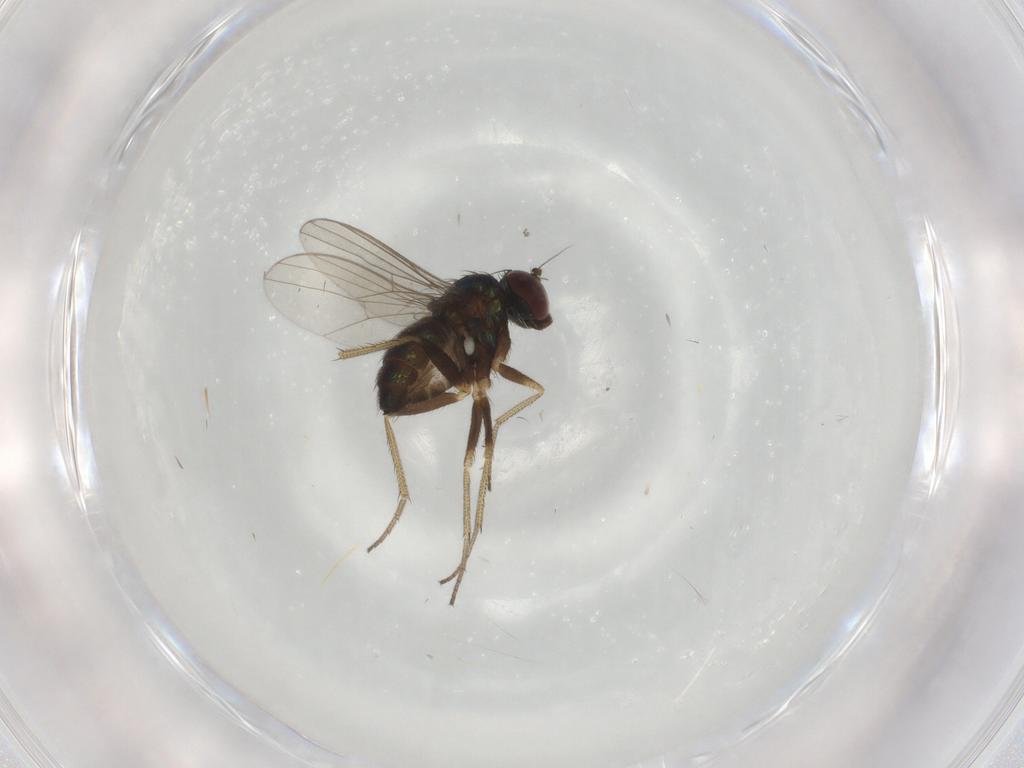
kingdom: Animalia
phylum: Arthropoda
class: Insecta
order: Diptera
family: Dolichopodidae
